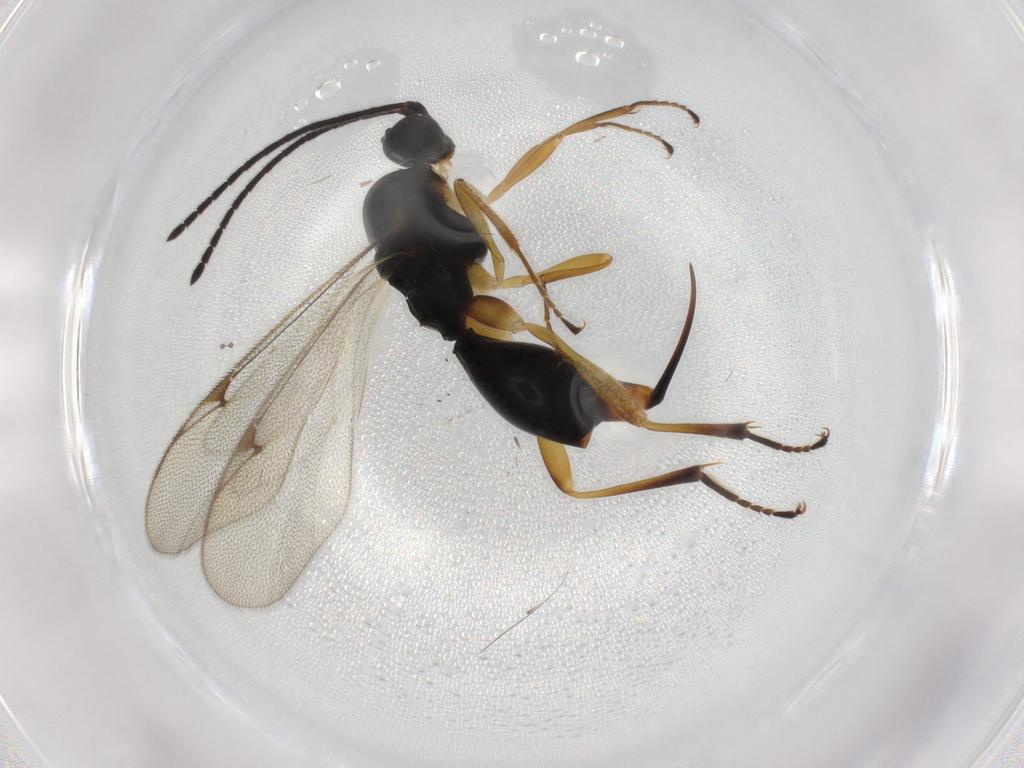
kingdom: Animalia
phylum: Arthropoda
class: Insecta
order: Hymenoptera
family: Proctotrupidae
